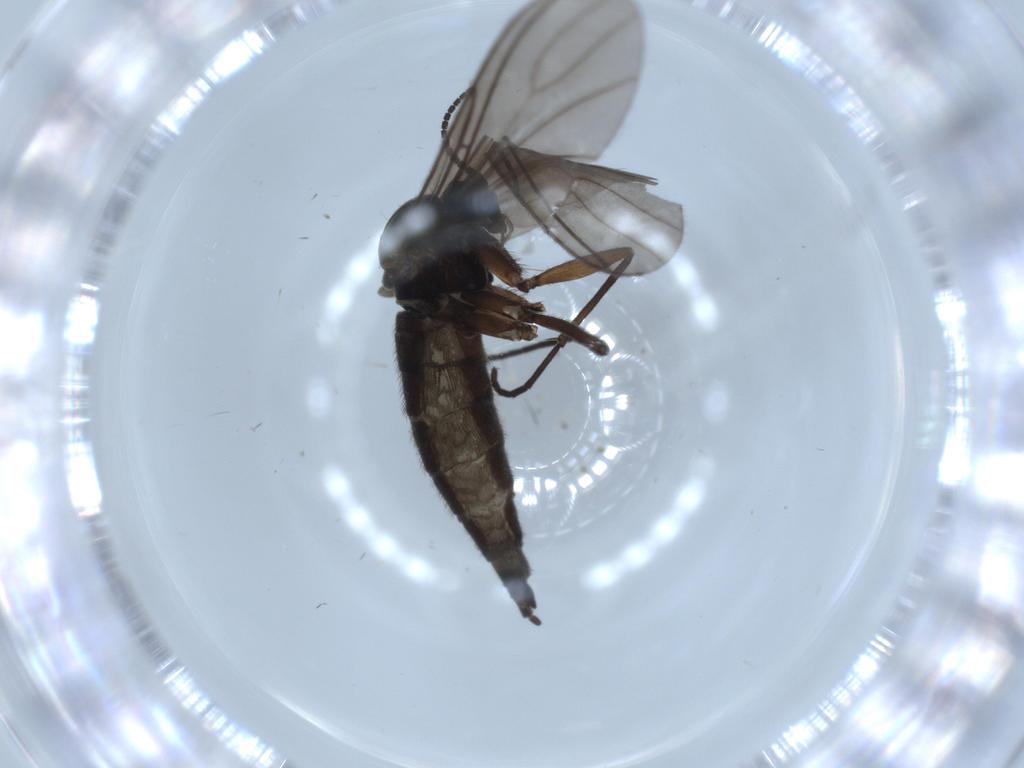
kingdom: Animalia
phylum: Arthropoda
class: Insecta
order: Diptera
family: Sciaridae
